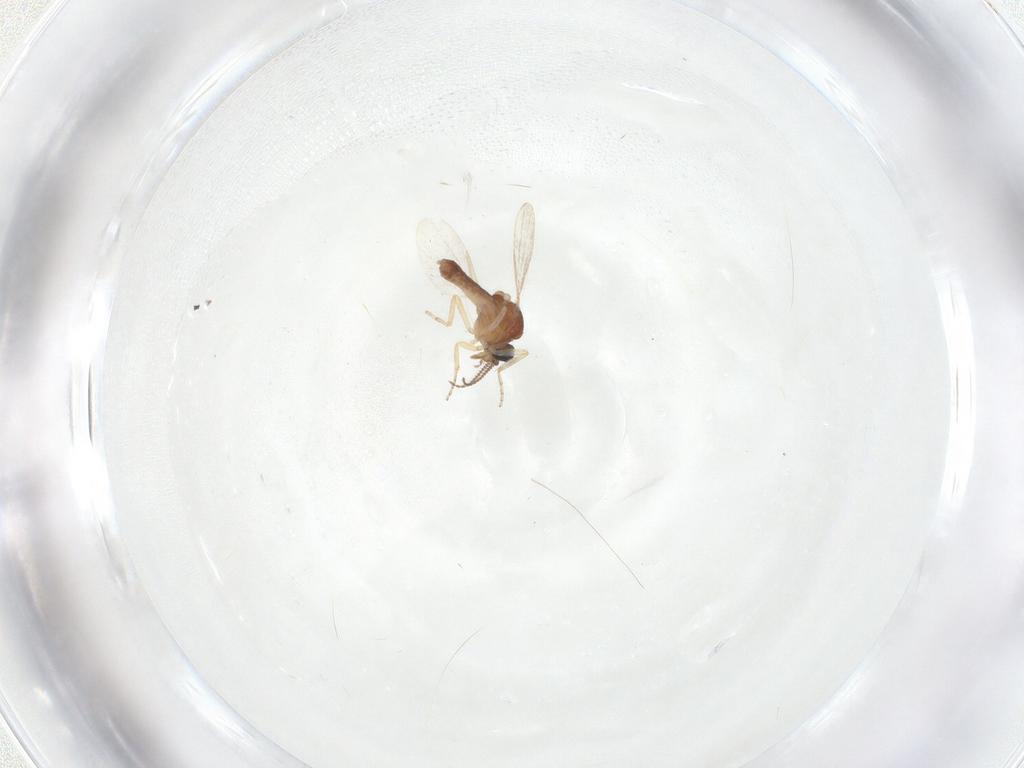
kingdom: Animalia
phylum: Arthropoda
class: Insecta
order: Diptera
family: Ceratopogonidae
